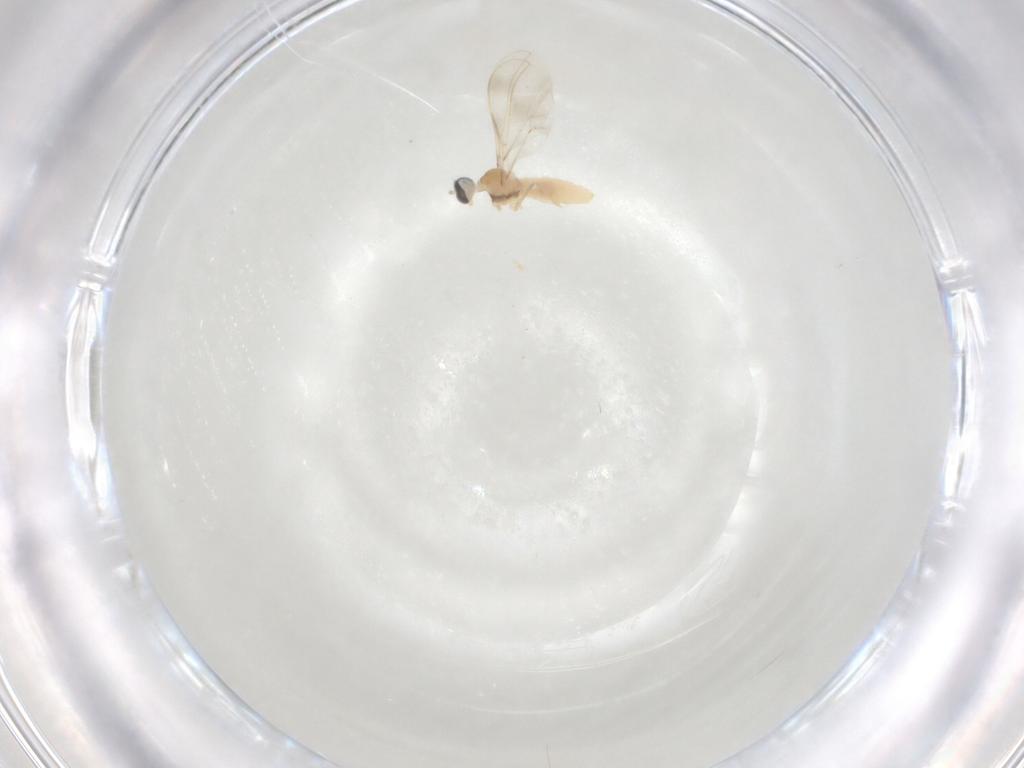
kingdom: Animalia
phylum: Arthropoda
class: Insecta
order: Diptera
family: Cecidomyiidae
